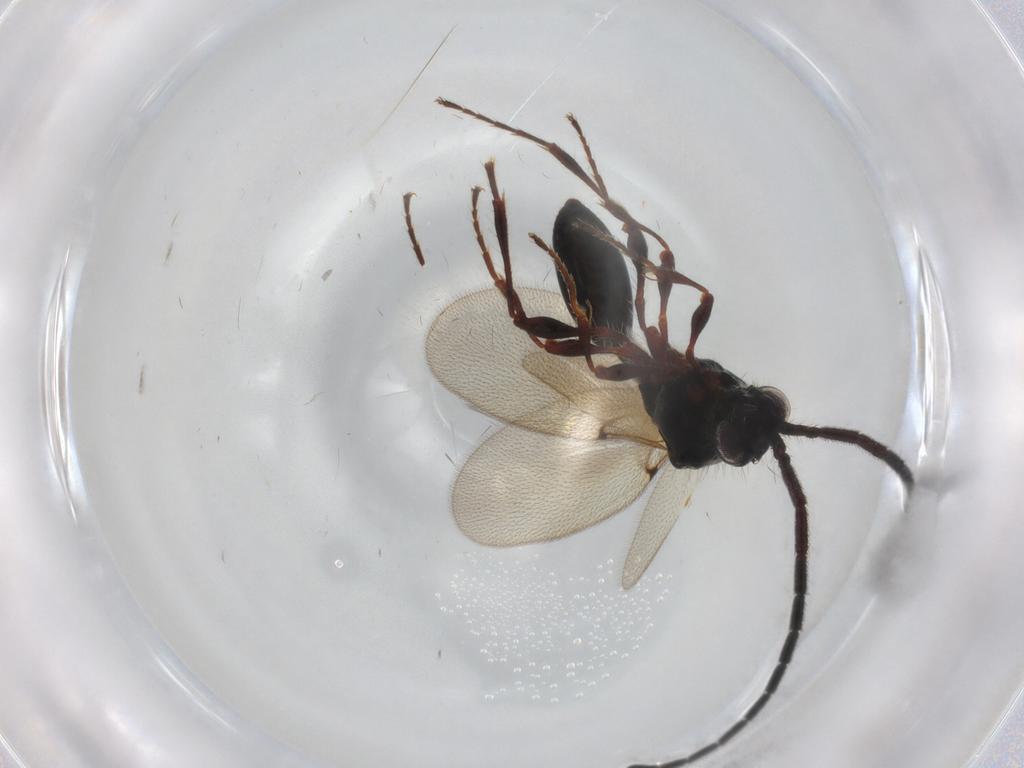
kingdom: Animalia
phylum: Arthropoda
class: Insecta
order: Hymenoptera
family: Diapriidae
